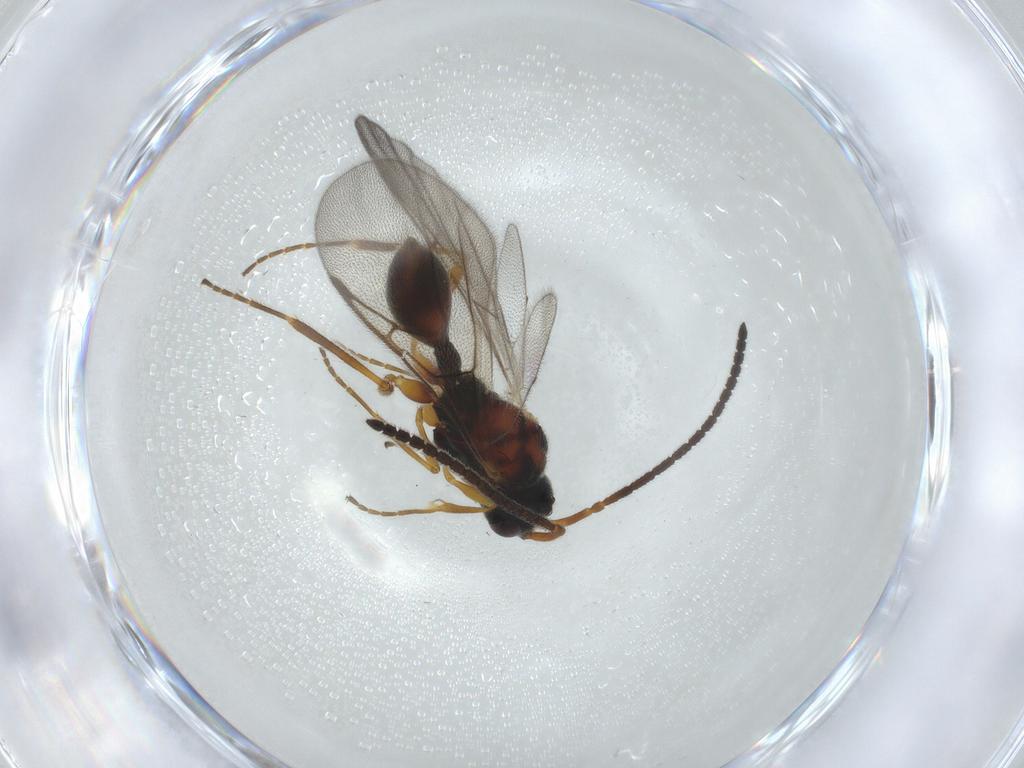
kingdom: Animalia
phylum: Arthropoda
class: Insecta
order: Hymenoptera
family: Diapriidae
